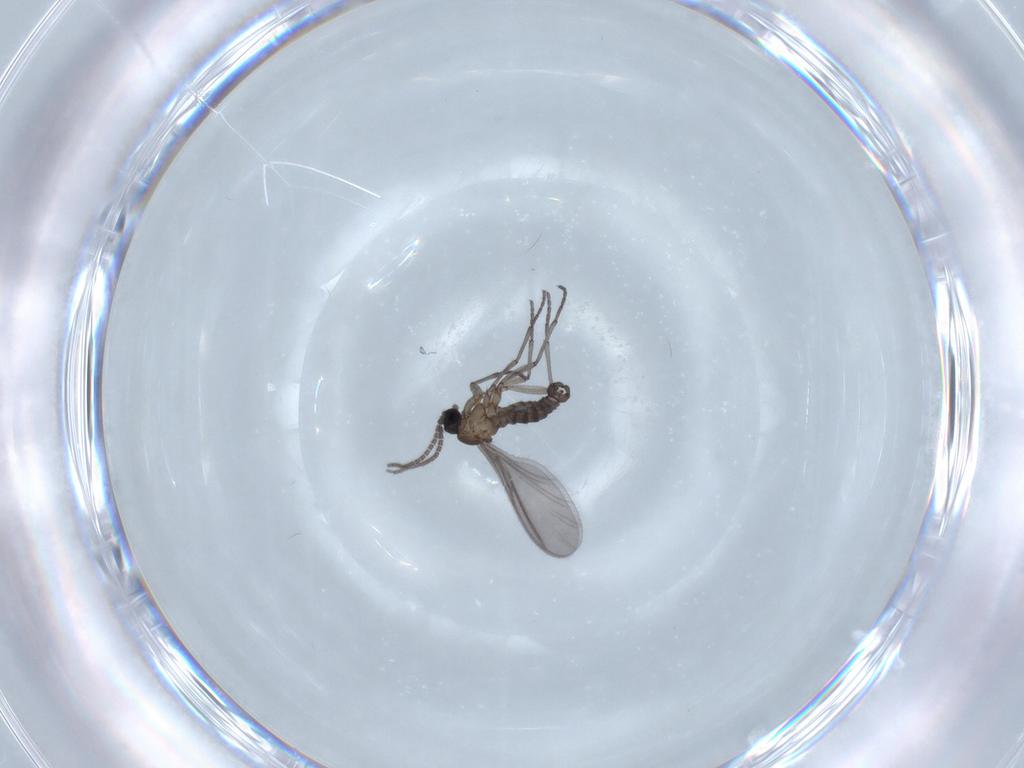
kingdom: Animalia
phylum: Arthropoda
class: Insecta
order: Diptera
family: Sciaridae
